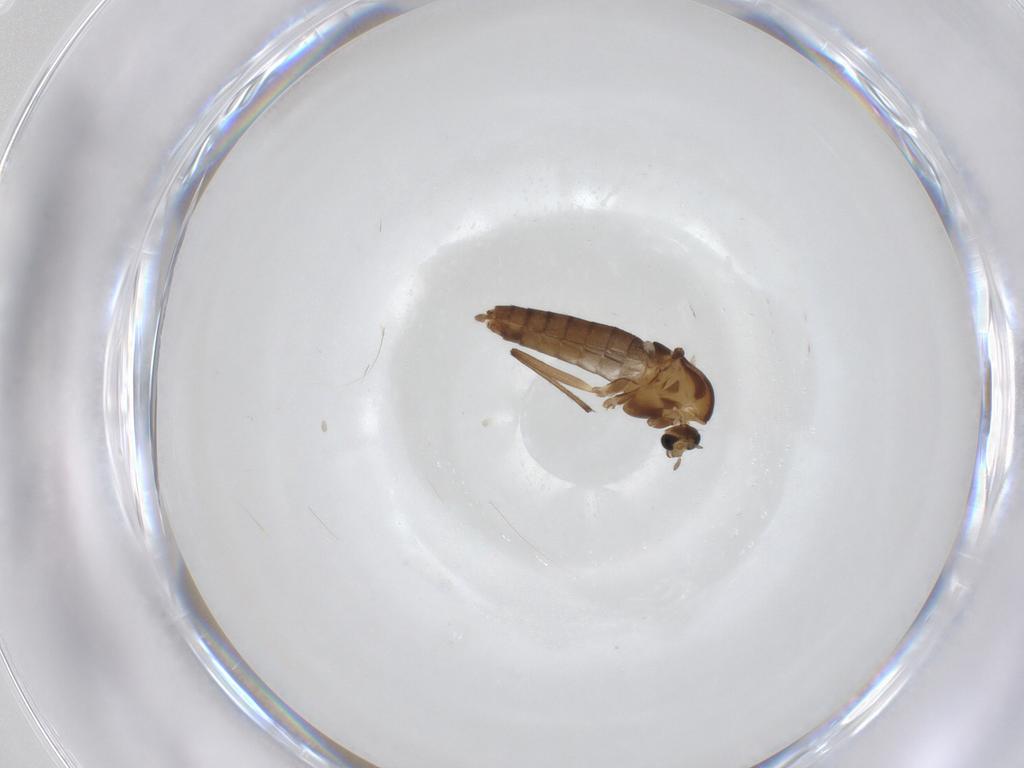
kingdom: Animalia
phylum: Arthropoda
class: Insecta
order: Diptera
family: Chironomidae
